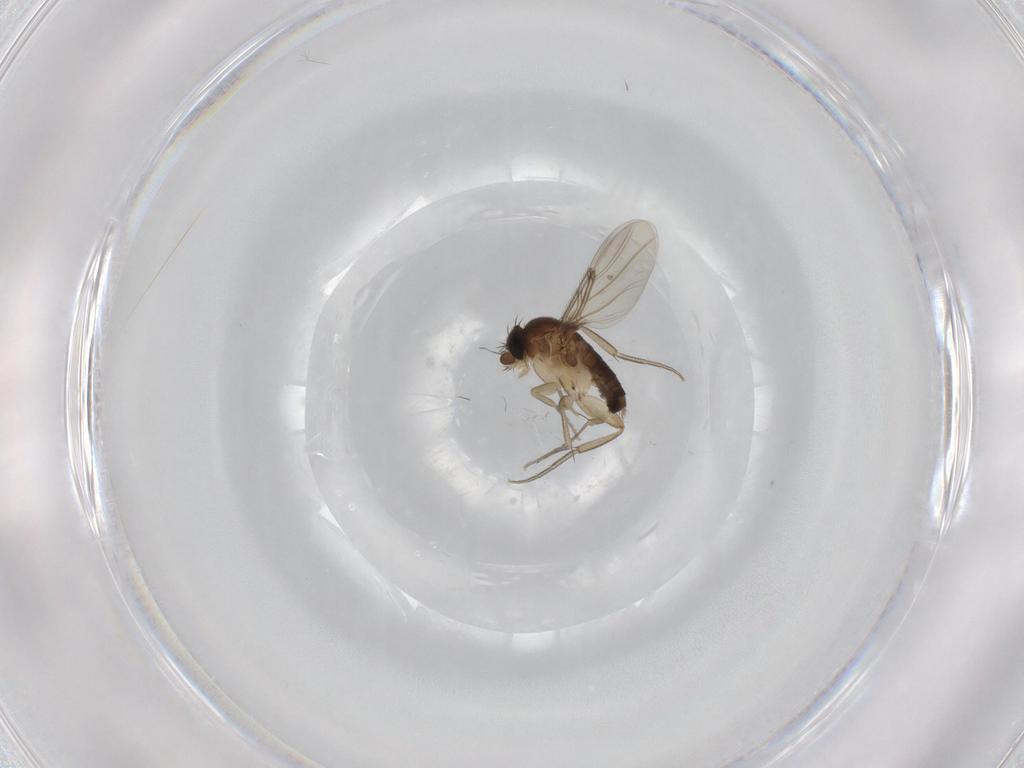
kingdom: Animalia
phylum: Arthropoda
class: Insecta
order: Diptera
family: Phoridae
